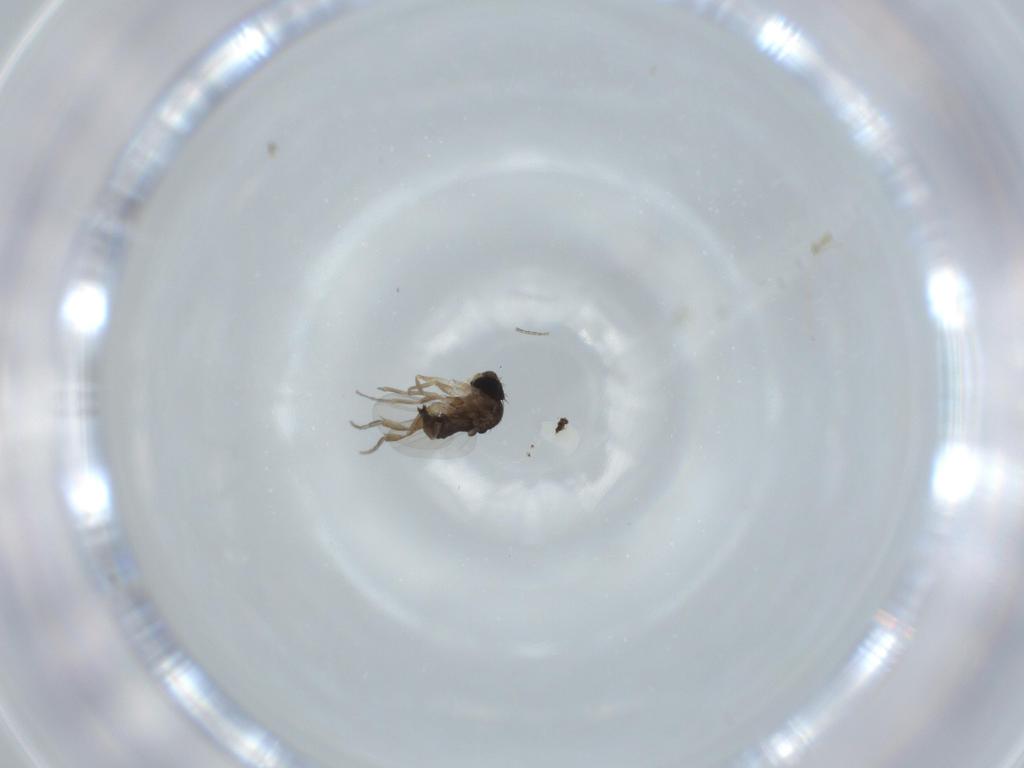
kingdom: Animalia
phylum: Arthropoda
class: Insecta
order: Diptera
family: Phoridae
